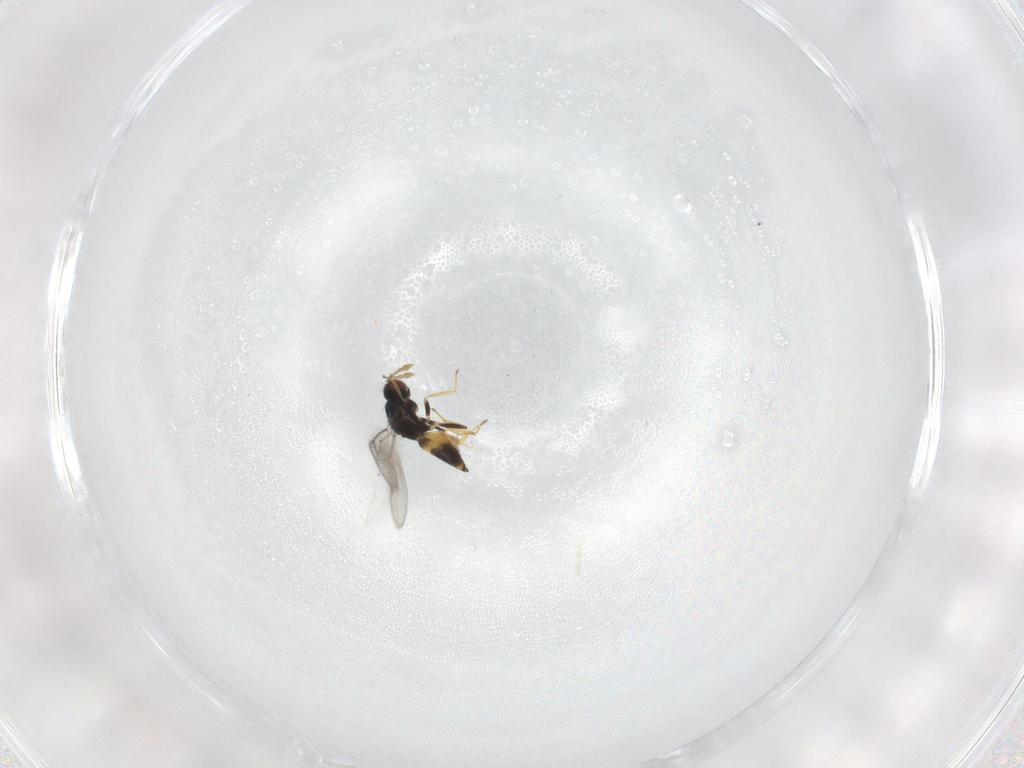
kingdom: Animalia
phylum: Arthropoda
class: Insecta
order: Hymenoptera
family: Eulophidae
